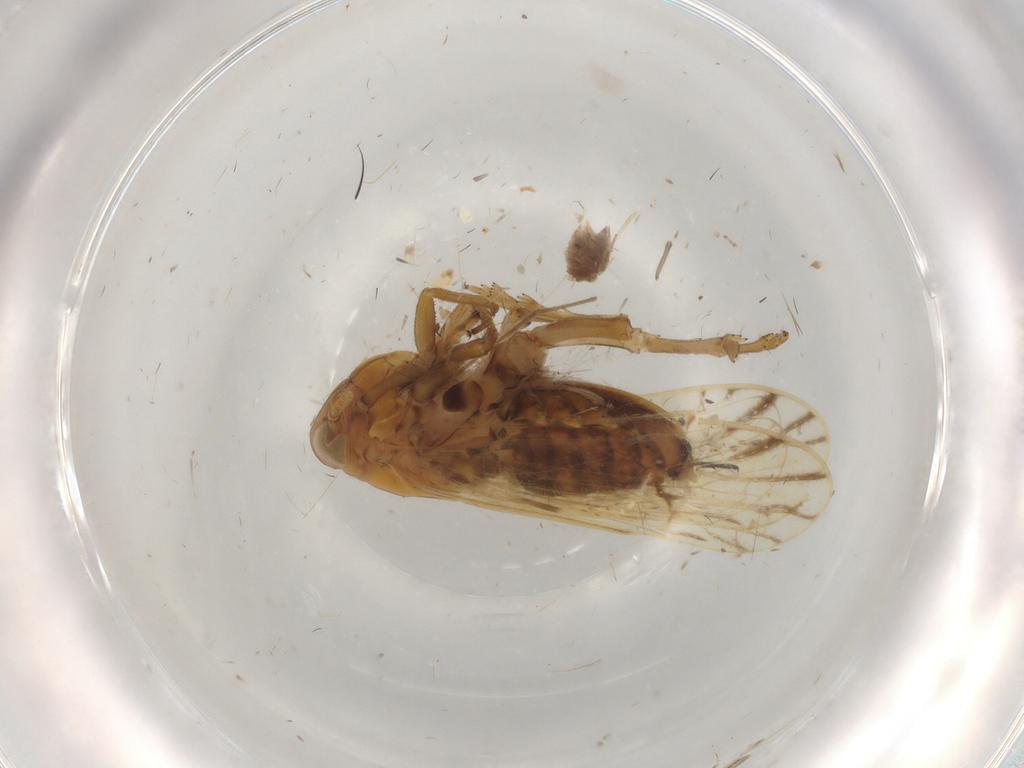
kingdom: Animalia
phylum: Arthropoda
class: Insecta
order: Hemiptera
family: Delphacidae
